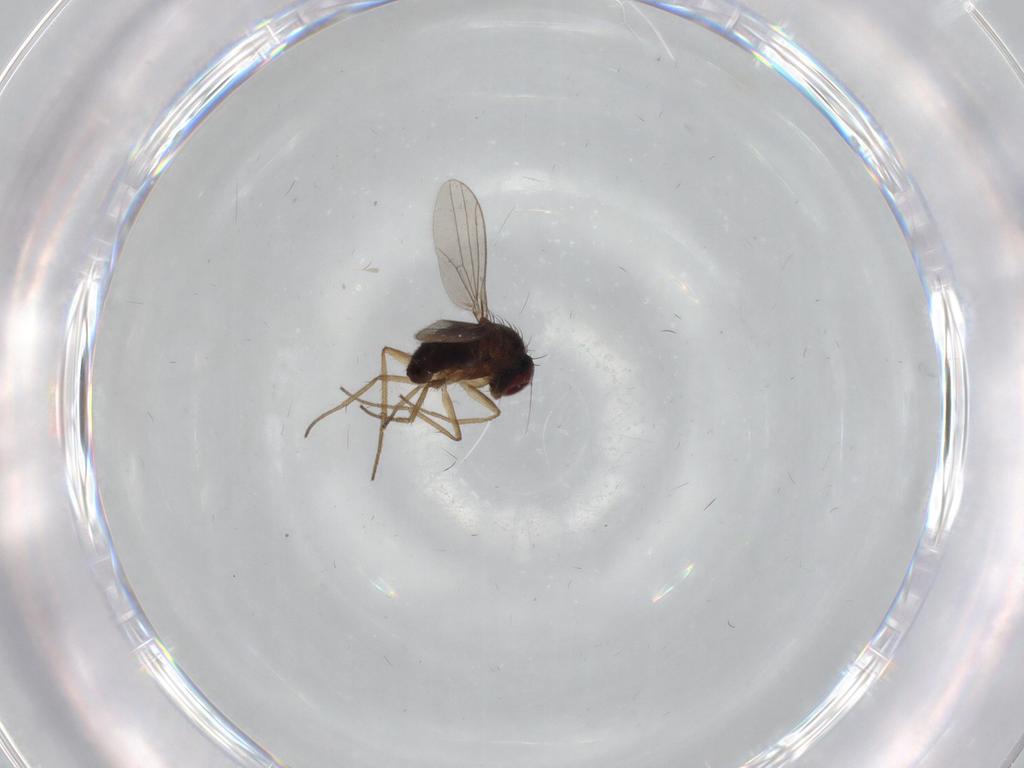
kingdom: Animalia
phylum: Arthropoda
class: Insecta
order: Diptera
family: Dolichopodidae
